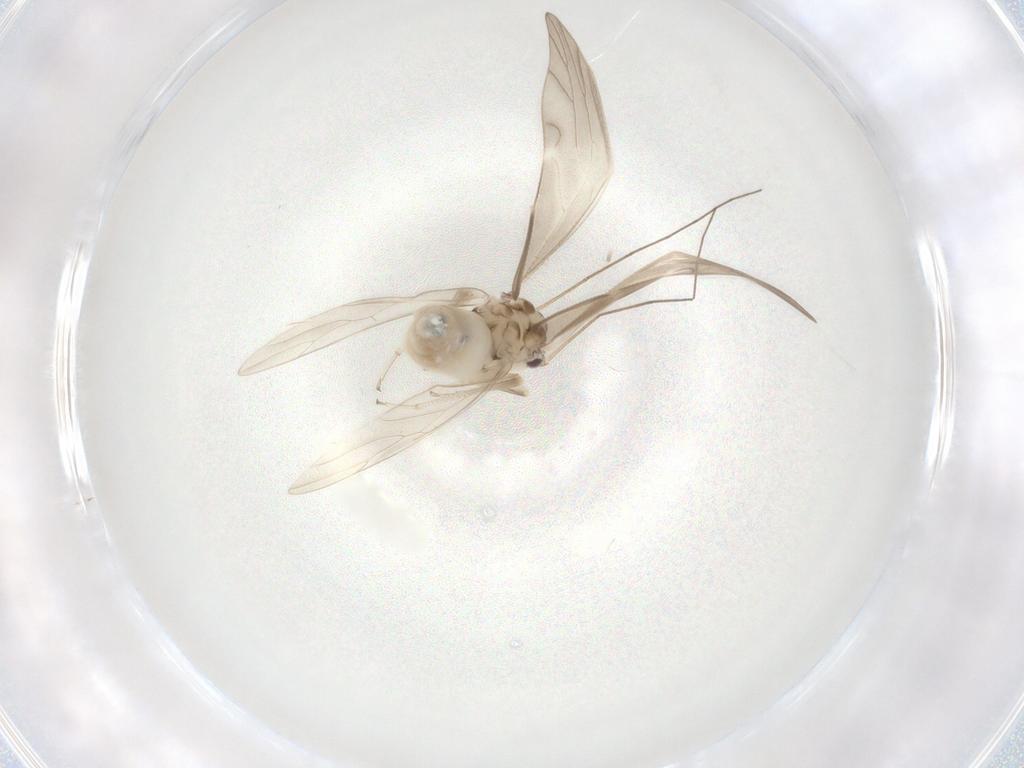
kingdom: Animalia
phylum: Arthropoda
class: Insecta
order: Psocodea
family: Caeciliusidae
